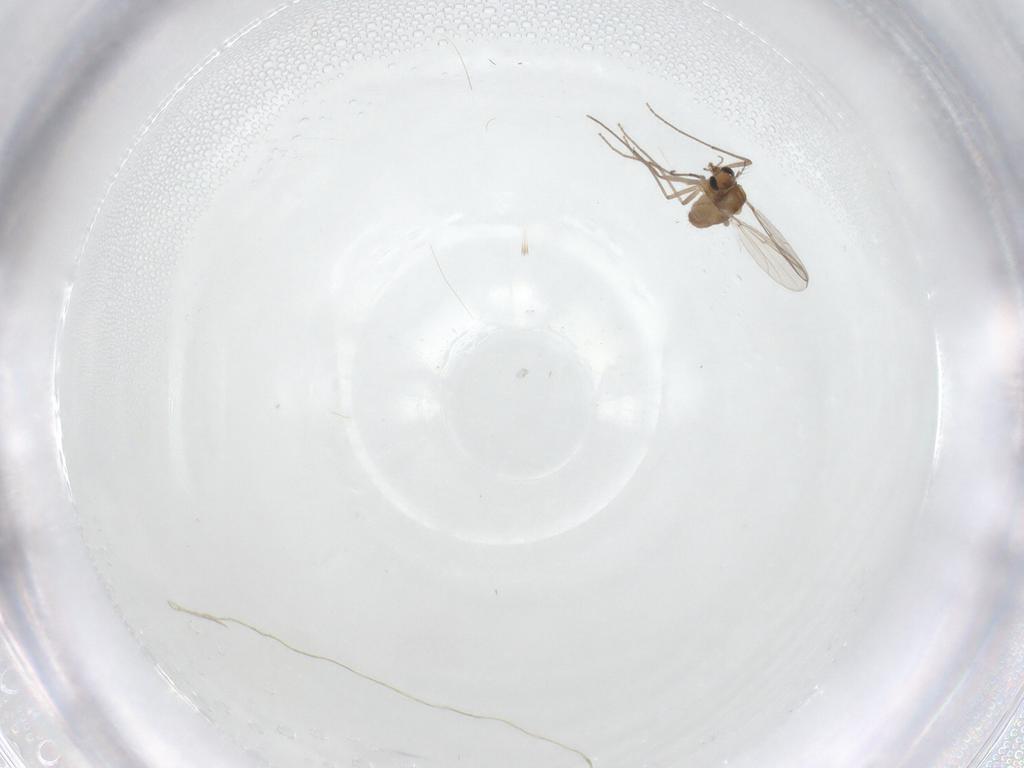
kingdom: Animalia
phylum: Arthropoda
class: Insecta
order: Diptera
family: Chironomidae
